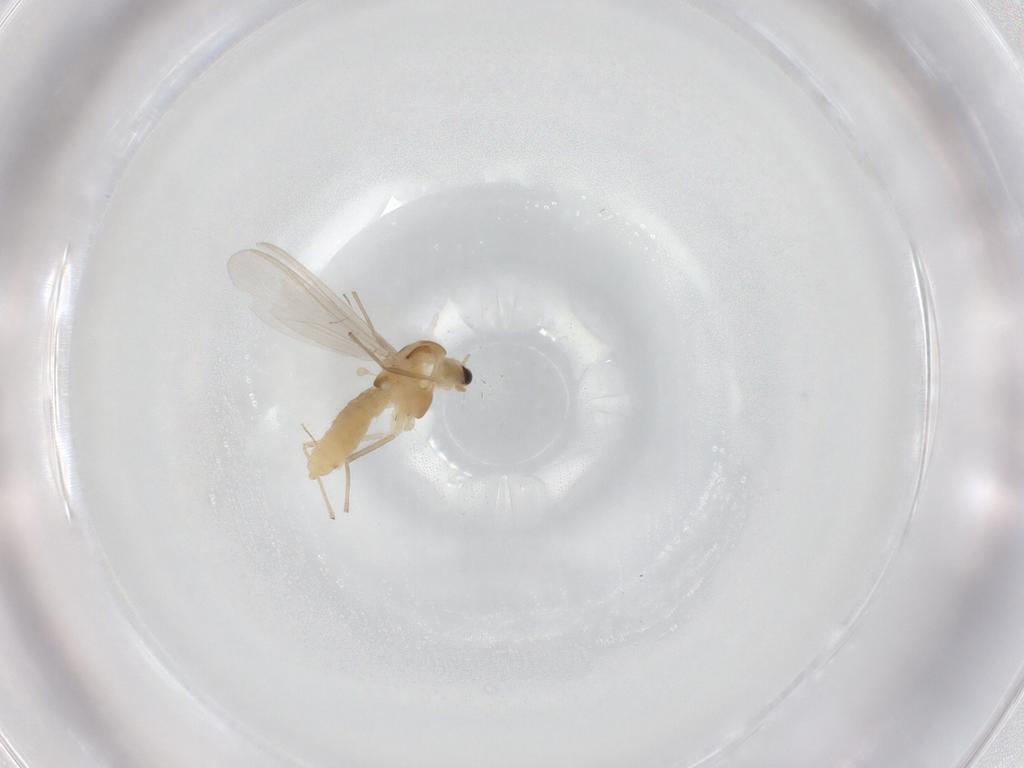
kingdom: Animalia
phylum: Arthropoda
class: Insecta
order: Diptera
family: Chironomidae
